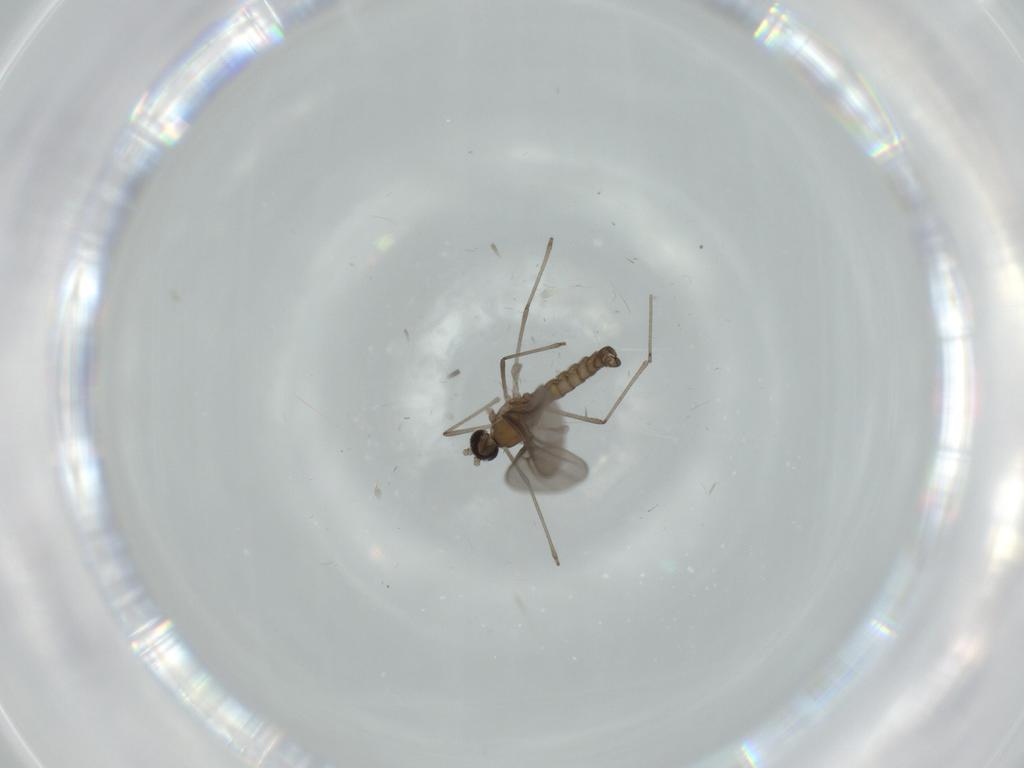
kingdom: Animalia
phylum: Arthropoda
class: Insecta
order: Diptera
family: Cecidomyiidae
